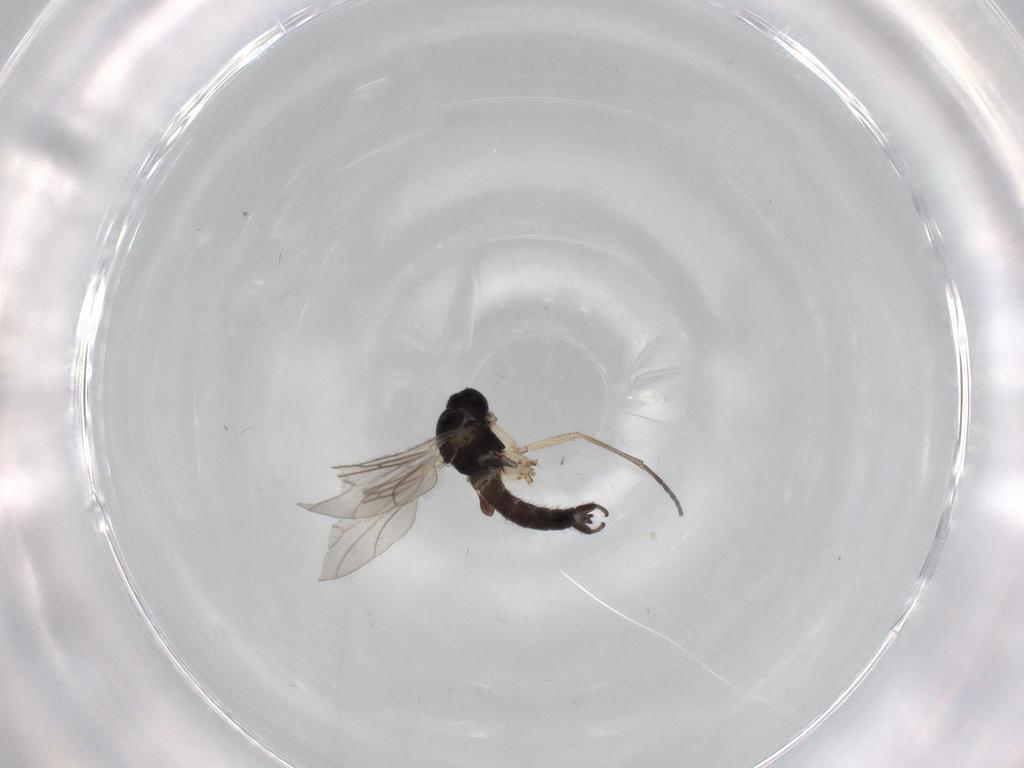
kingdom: Animalia
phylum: Arthropoda
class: Insecta
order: Diptera
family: Sciaridae
